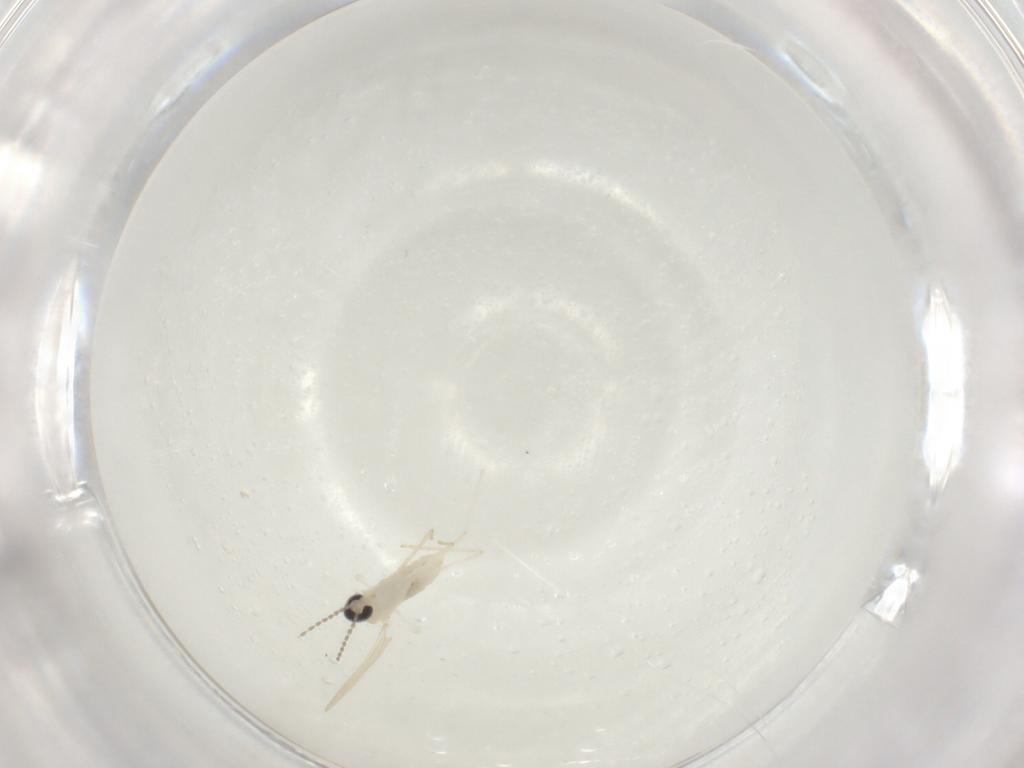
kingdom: Animalia
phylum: Arthropoda
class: Insecta
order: Diptera
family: Cecidomyiidae
